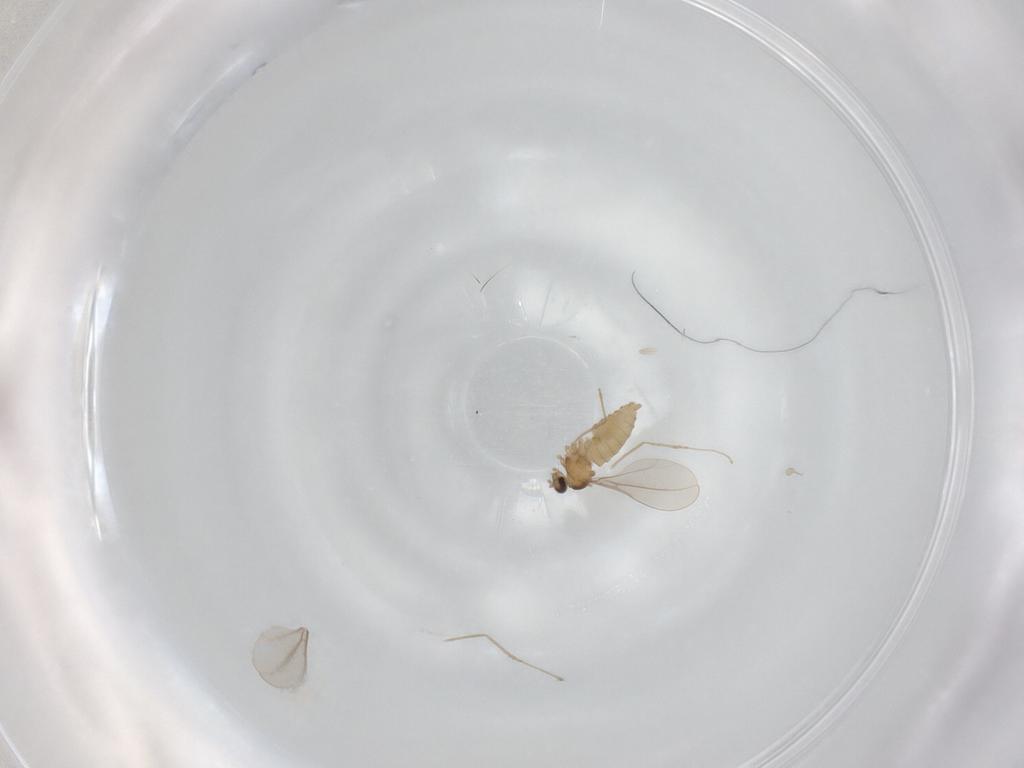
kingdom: Animalia
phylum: Arthropoda
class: Insecta
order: Diptera
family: Cecidomyiidae
